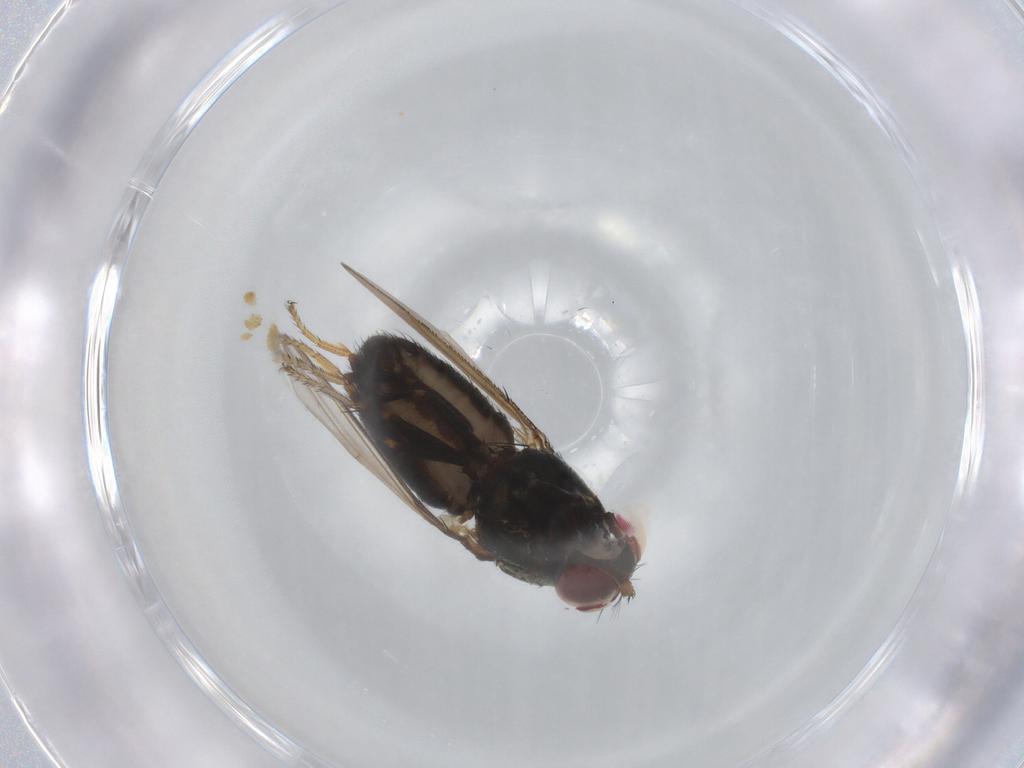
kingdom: Animalia
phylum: Arthropoda
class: Insecta
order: Diptera
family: Ephydridae
